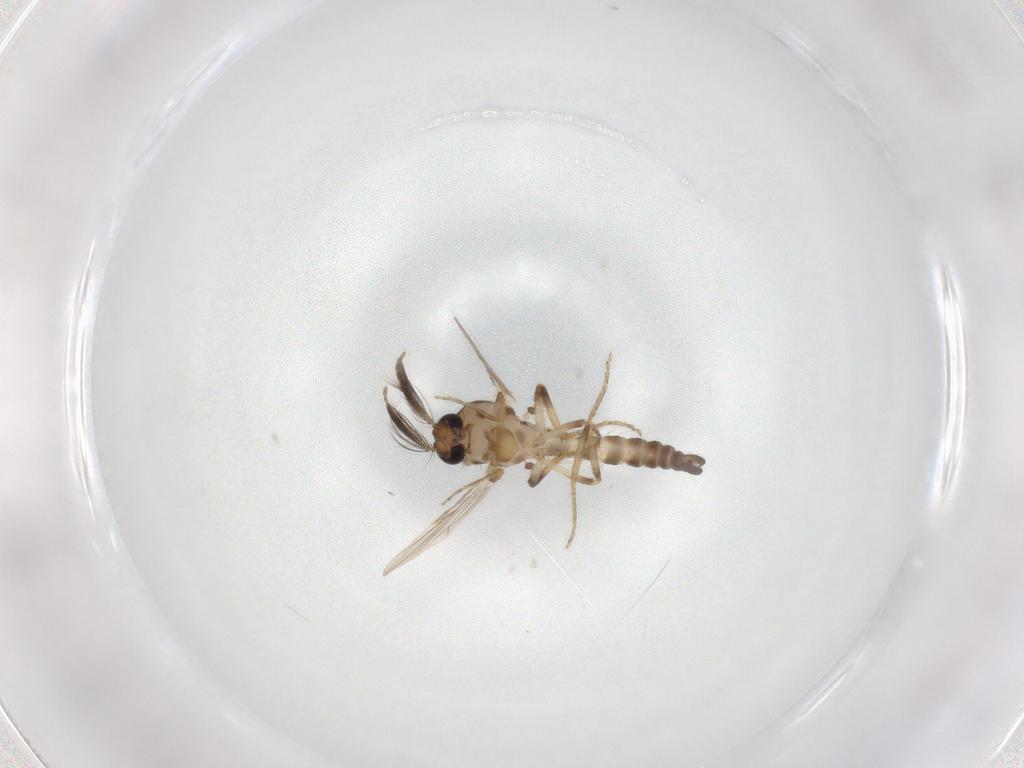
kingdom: Animalia
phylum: Arthropoda
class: Insecta
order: Diptera
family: Ceratopogonidae
